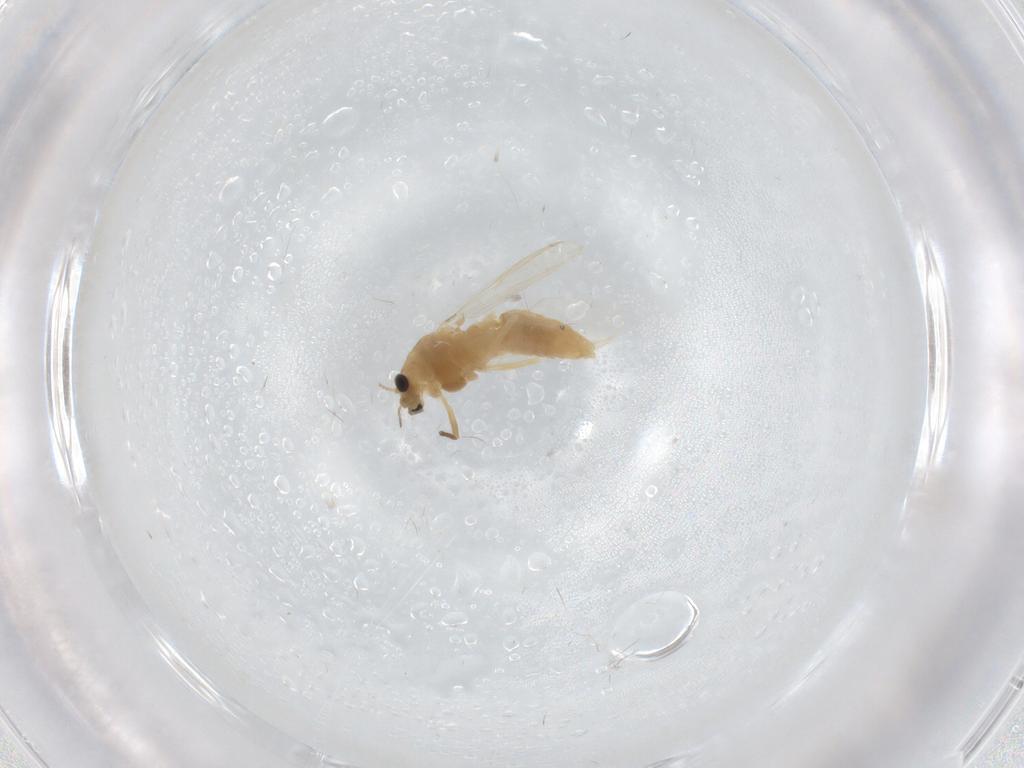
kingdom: Animalia
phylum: Arthropoda
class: Insecta
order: Diptera
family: Chironomidae
